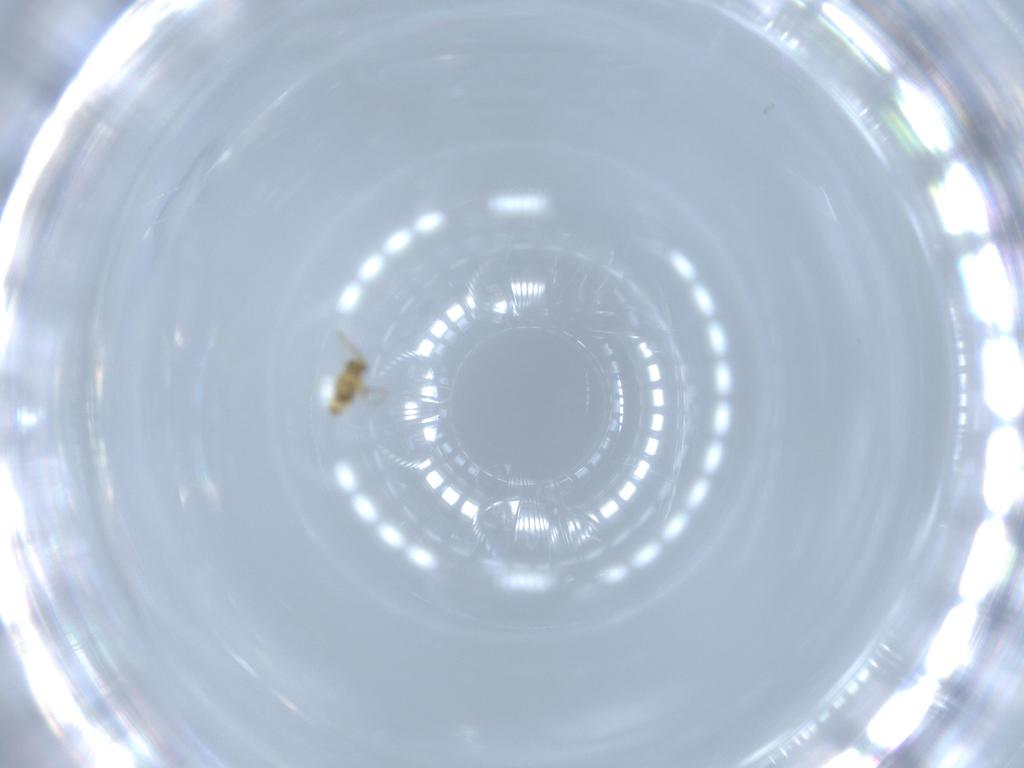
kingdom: Animalia
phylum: Arthropoda
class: Insecta
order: Hymenoptera
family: Aphelinidae
